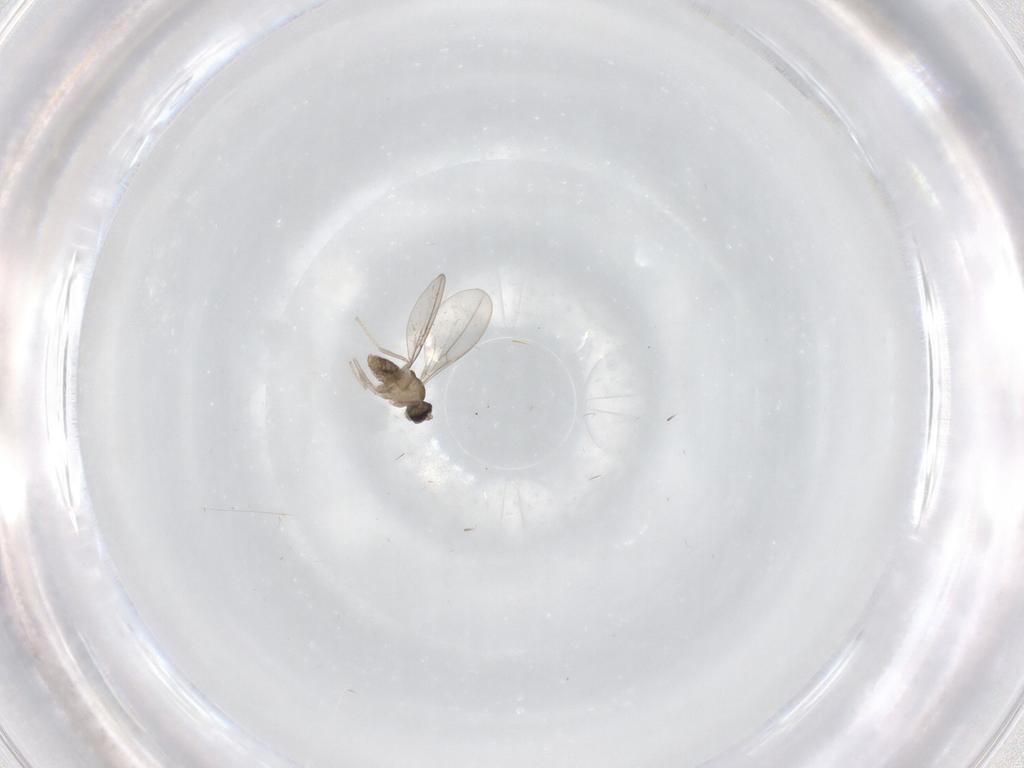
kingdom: Animalia
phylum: Arthropoda
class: Insecta
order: Diptera
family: Cecidomyiidae
